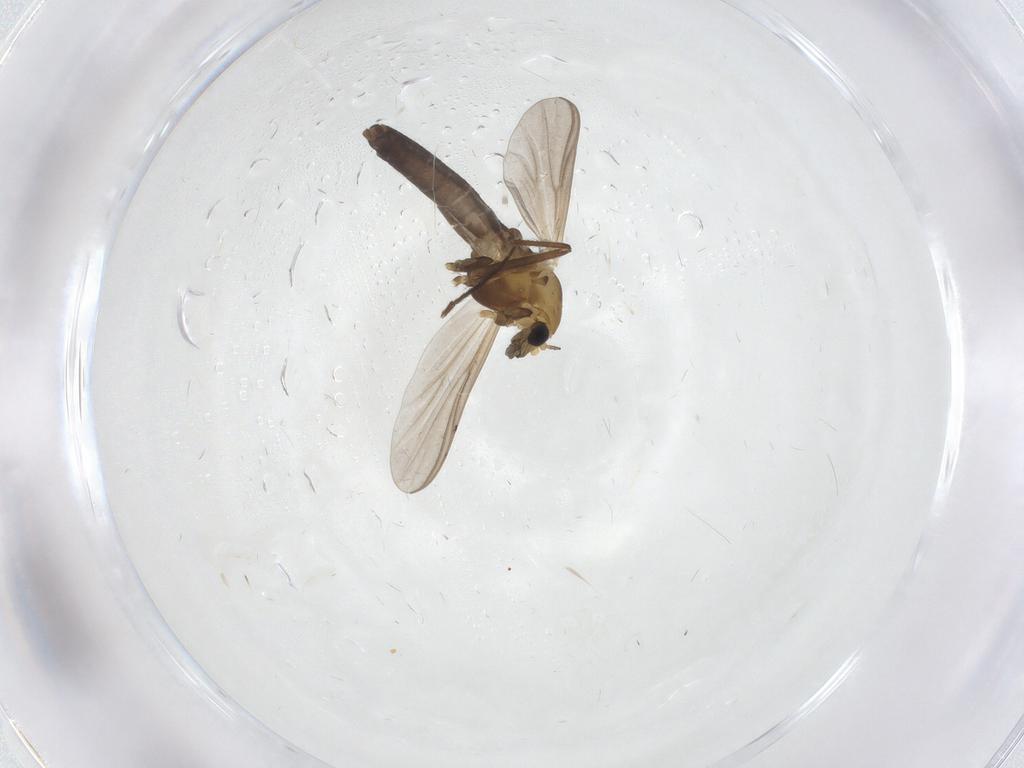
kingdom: Animalia
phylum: Arthropoda
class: Insecta
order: Diptera
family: Chironomidae
